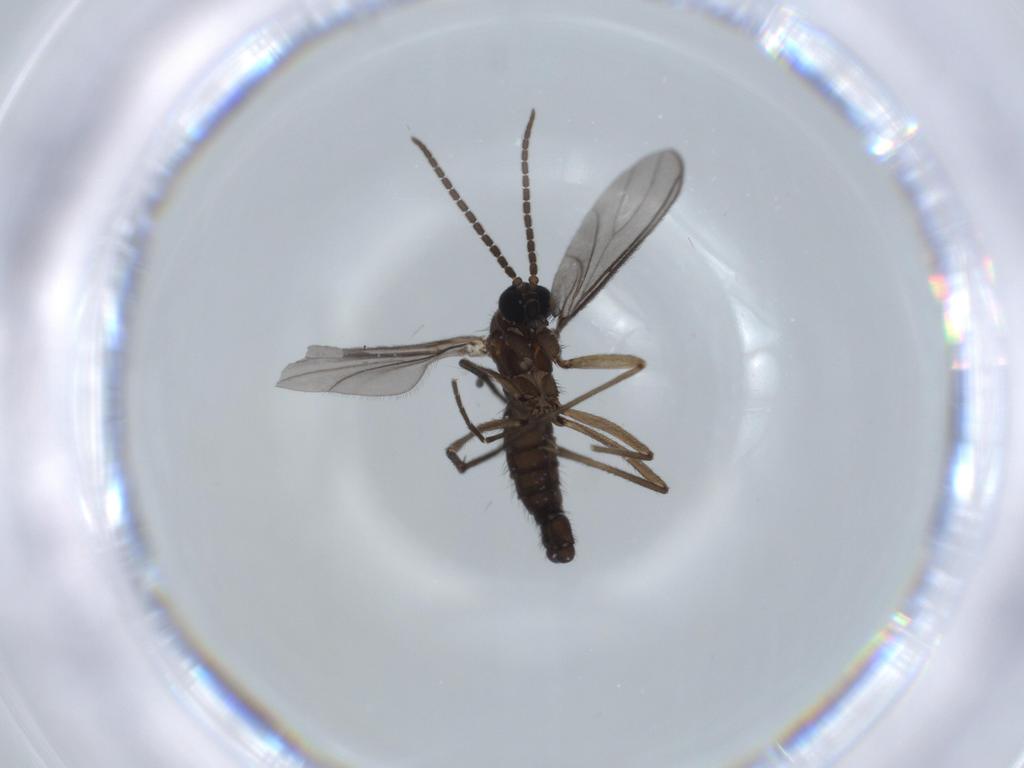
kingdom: Animalia
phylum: Arthropoda
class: Insecta
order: Diptera
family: Sciaridae
